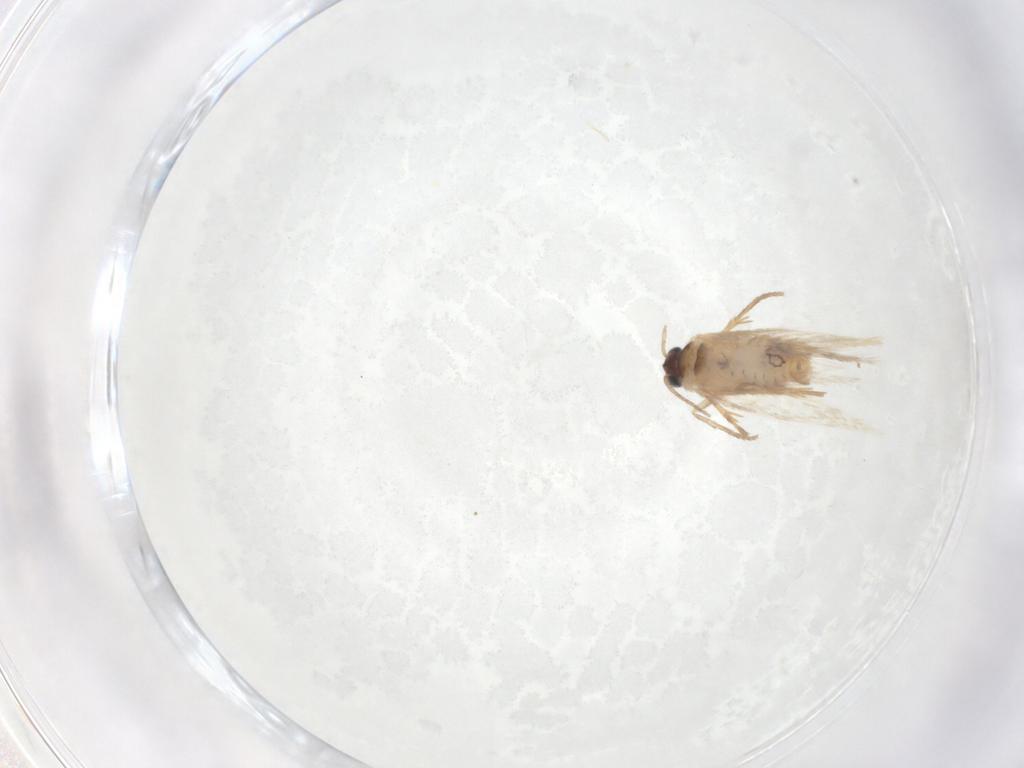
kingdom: Animalia
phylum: Arthropoda
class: Insecta
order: Lepidoptera
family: Nepticulidae
